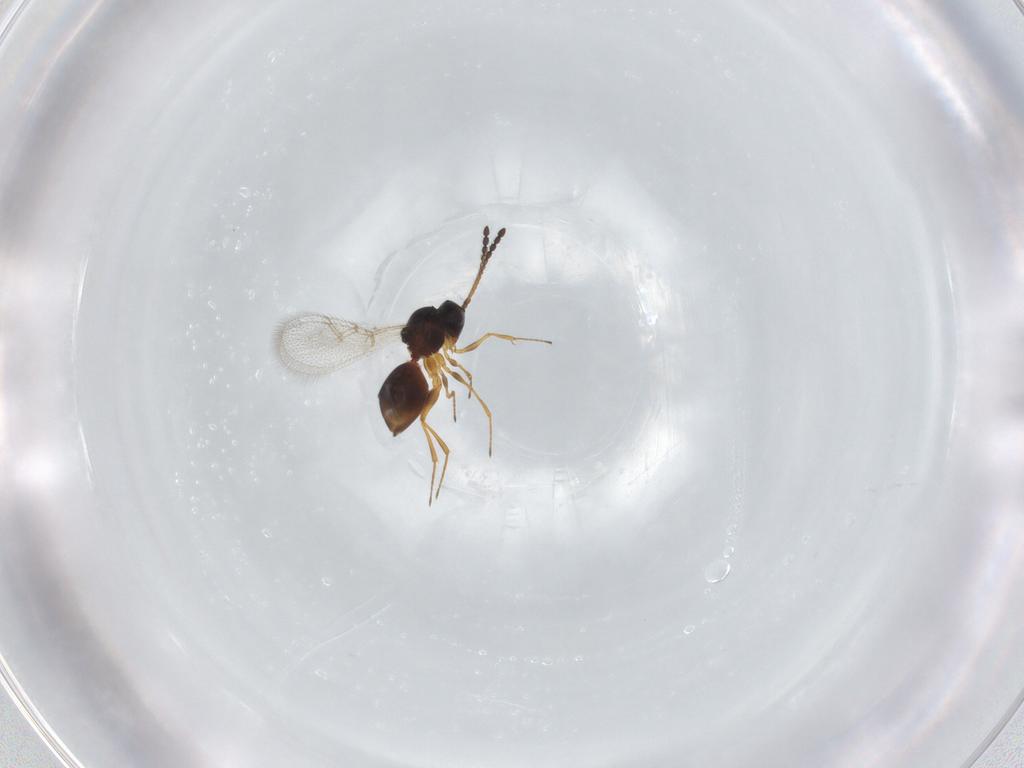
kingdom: Animalia
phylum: Arthropoda
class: Insecta
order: Hymenoptera
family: Figitidae
